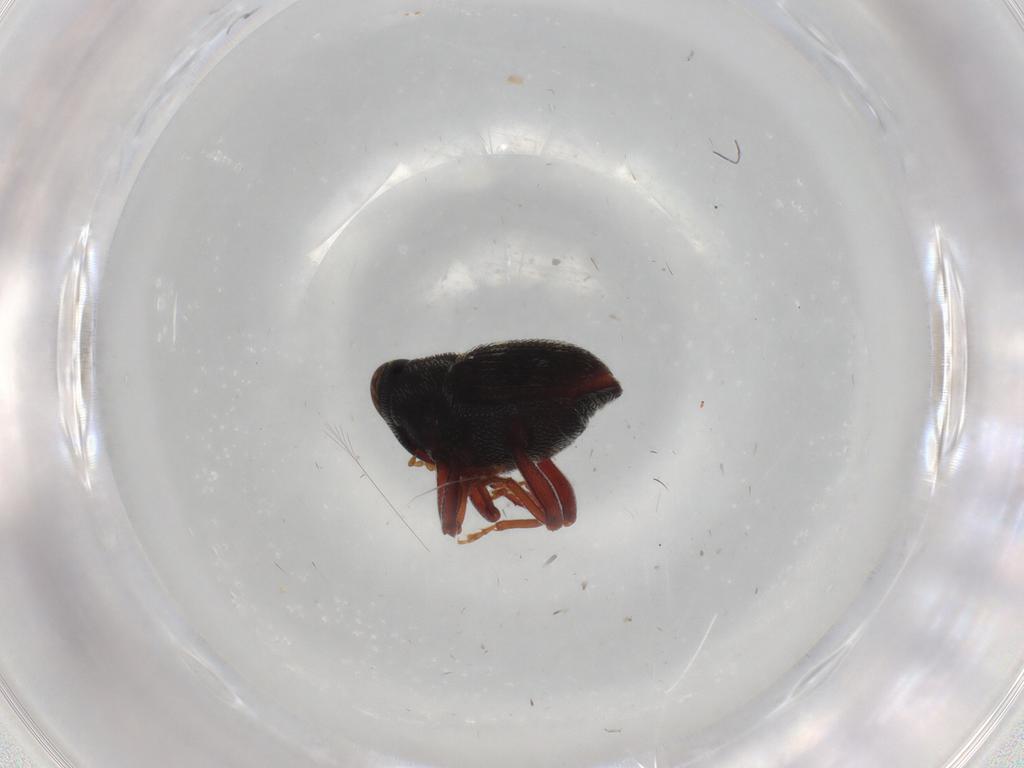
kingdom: Animalia
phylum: Arthropoda
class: Insecta
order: Coleoptera
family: Curculionidae
